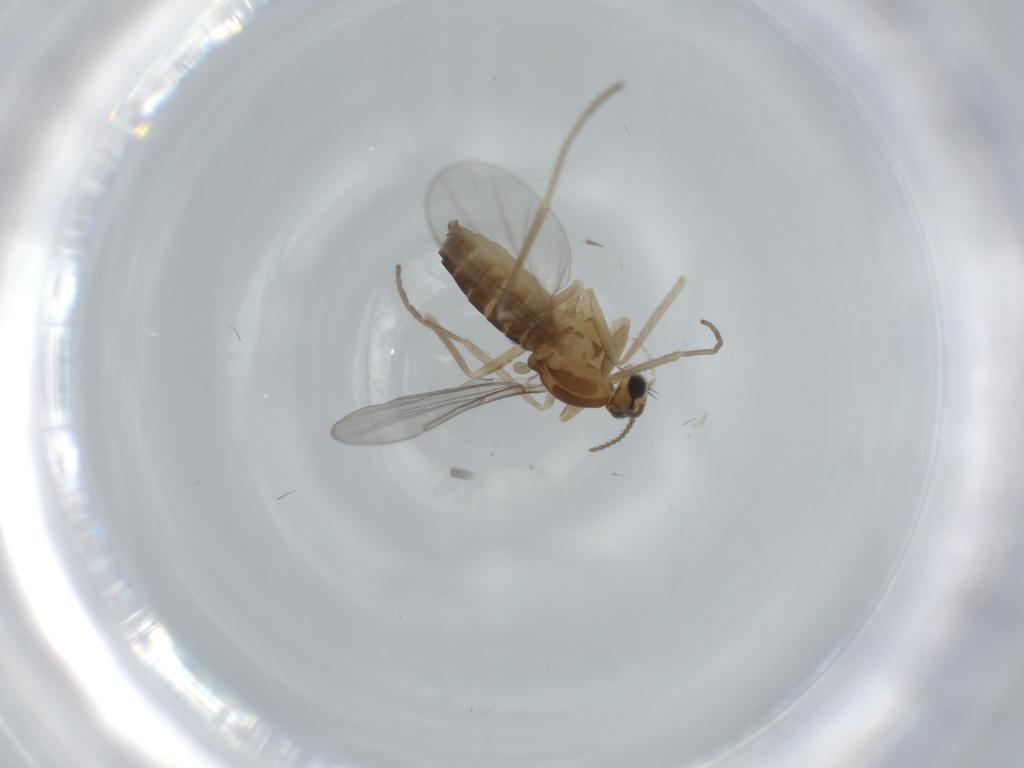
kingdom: Animalia
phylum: Arthropoda
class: Insecta
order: Diptera
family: Cecidomyiidae
